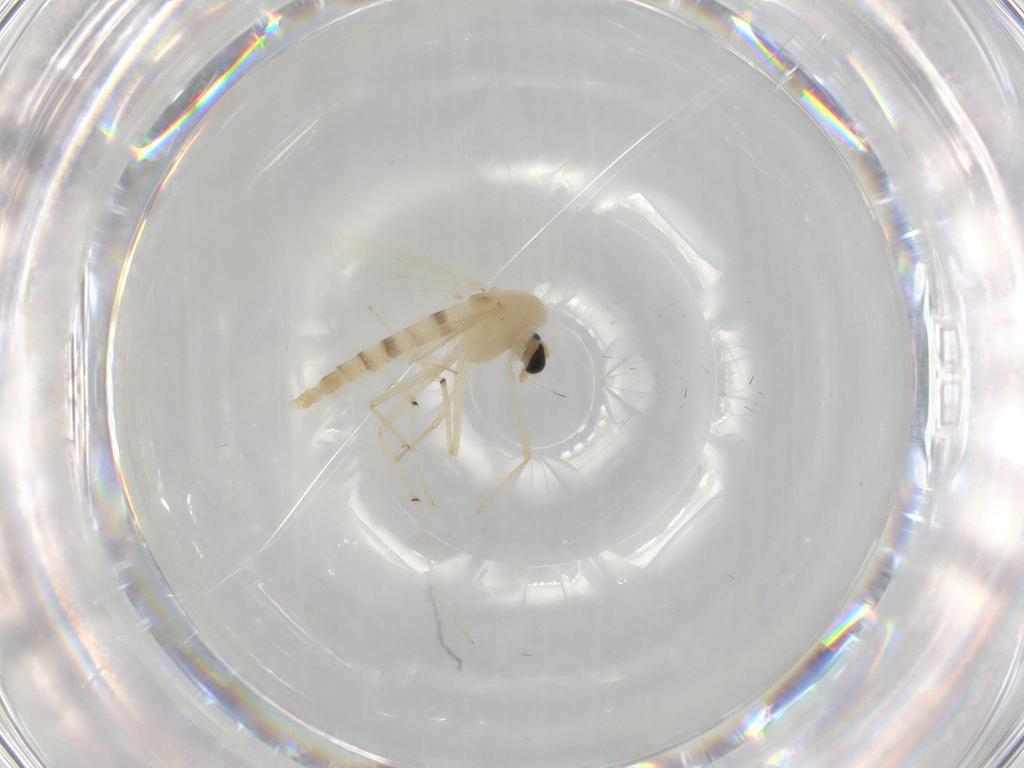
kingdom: Animalia
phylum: Arthropoda
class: Insecta
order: Diptera
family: Chironomidae
